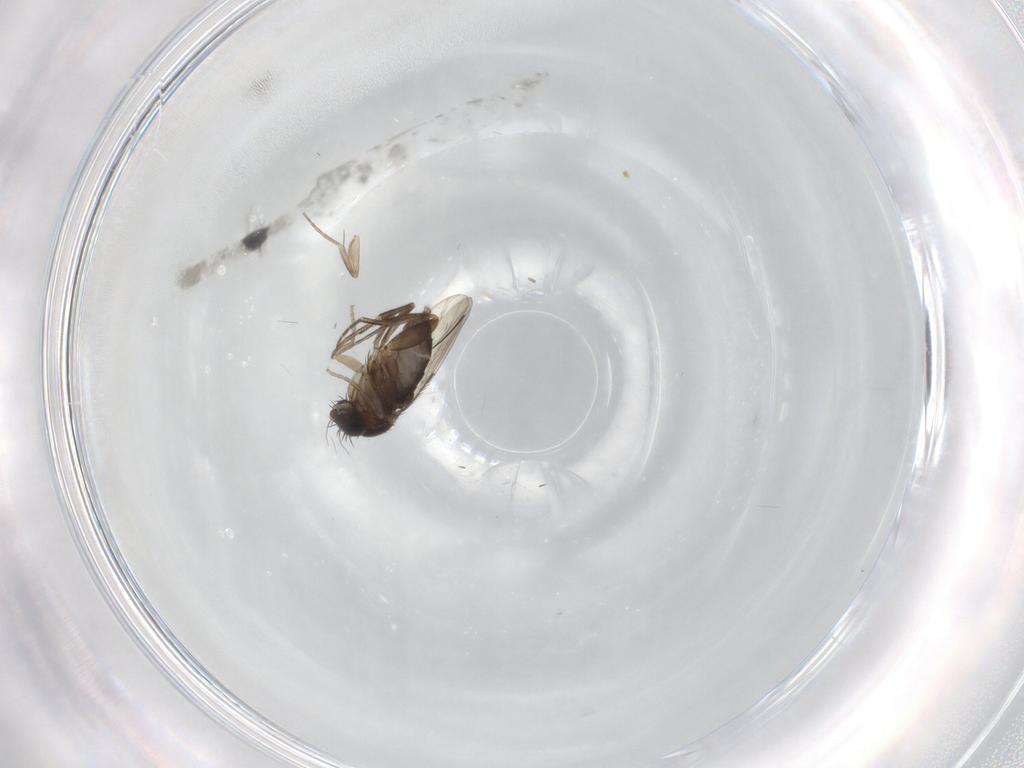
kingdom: Animalia
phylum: Arthropoda
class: Insecta
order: Diptera
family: Phoridae
